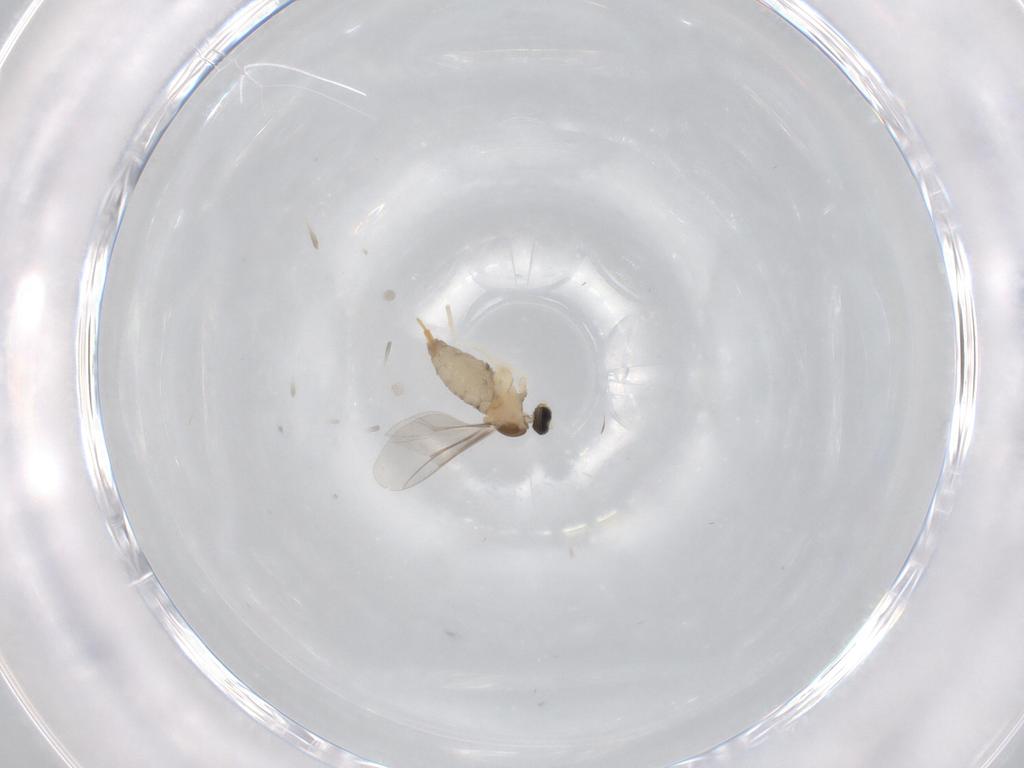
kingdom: Animalia
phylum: Arthropoda
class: Insecta
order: Diptera
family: Cecidomyiidae
